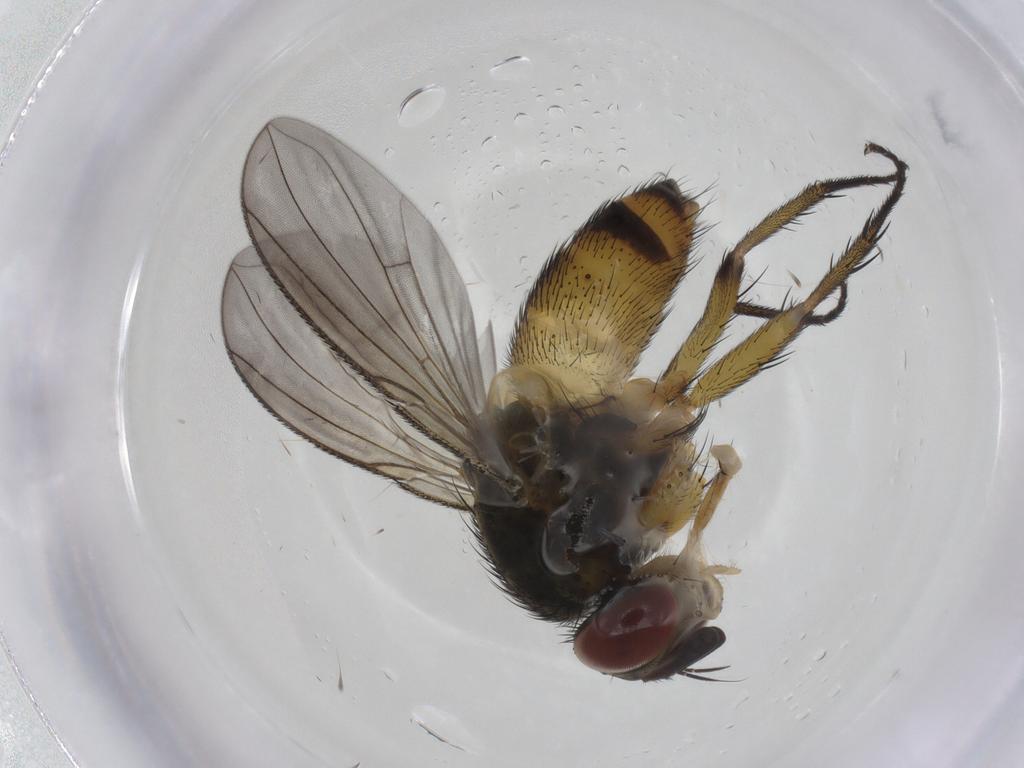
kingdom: Animalia
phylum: Arthropoda
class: Insecta
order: Diptera
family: Tachinidae
